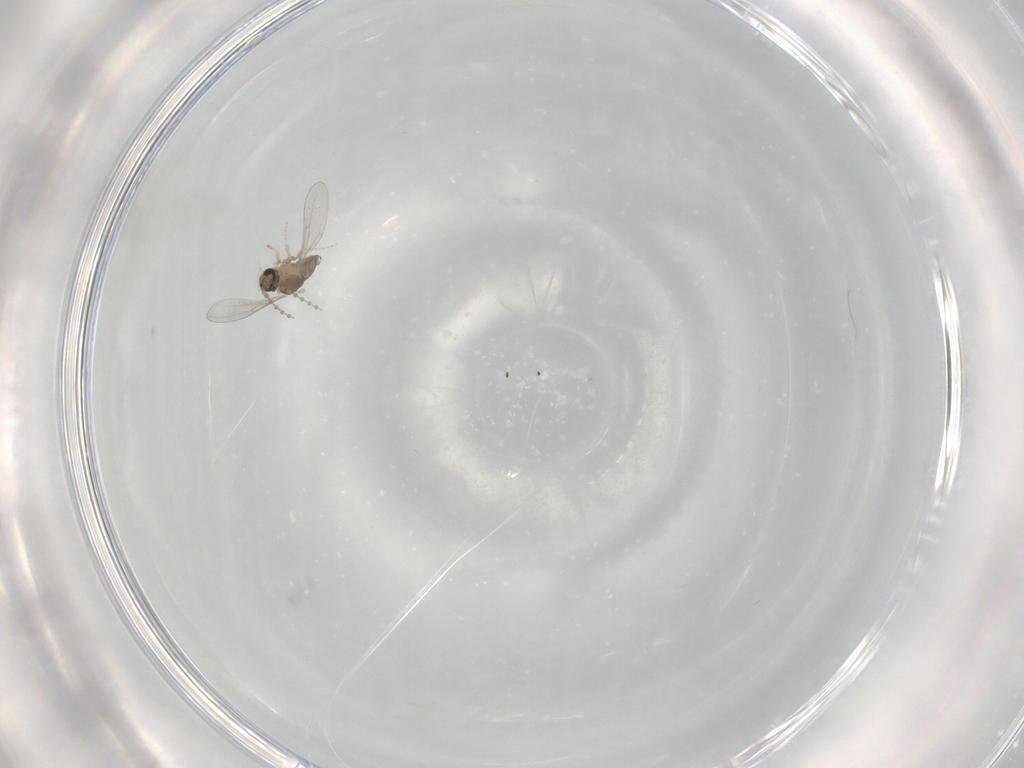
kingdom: Animalia
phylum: Arthropoda
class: Insecta
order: Diptera
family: Cecidomyiidae
